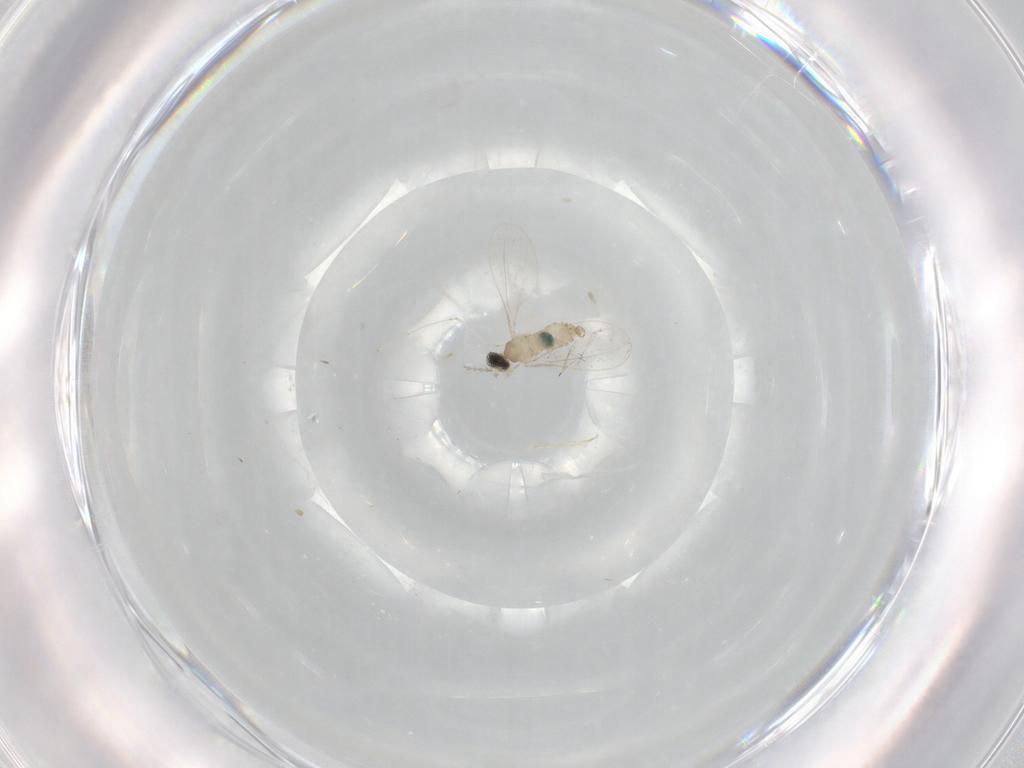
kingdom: Animalia
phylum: Arthropoda
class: Insecta
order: Diptera
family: Cecidomyiidae
